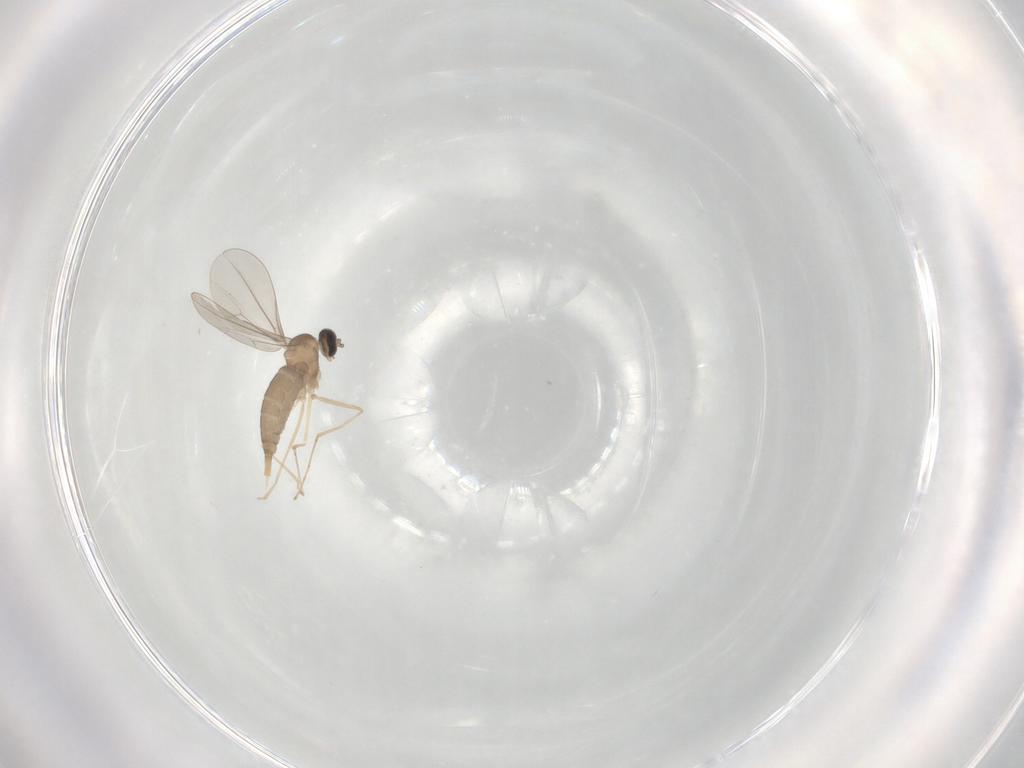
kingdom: Animalia
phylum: Arthropoda
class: Insecta
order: Diptera
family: Cecidomyiidae
